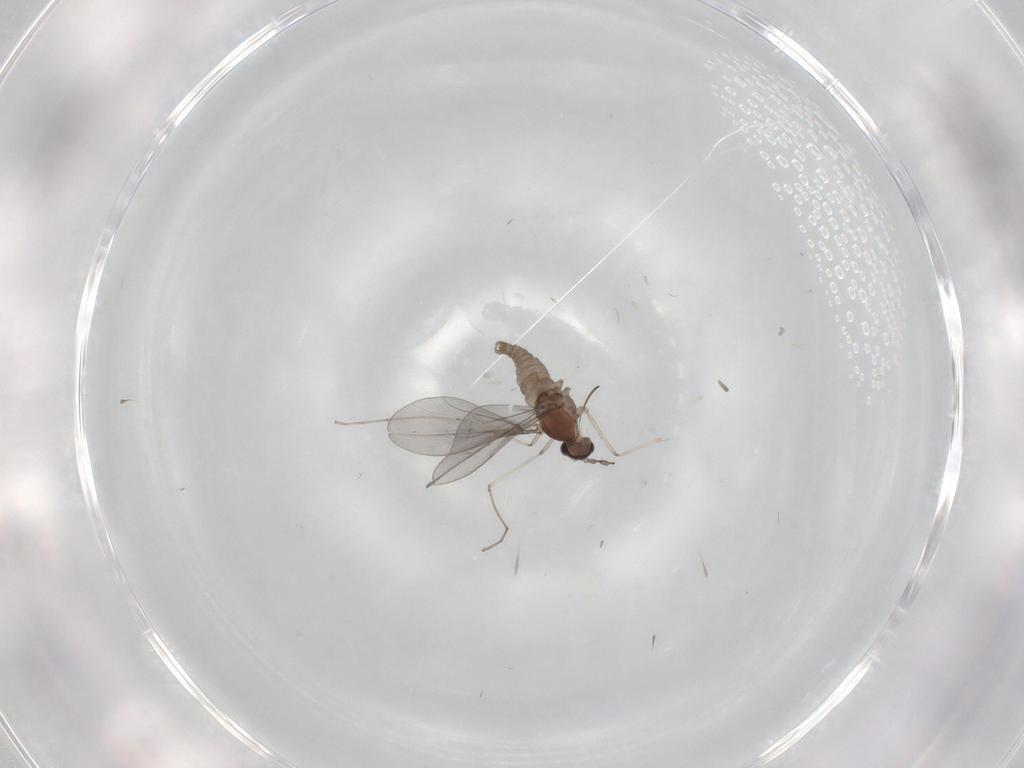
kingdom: Animalia
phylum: Arthropoda
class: Insecta
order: Diptera
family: Cecidomyiidae
